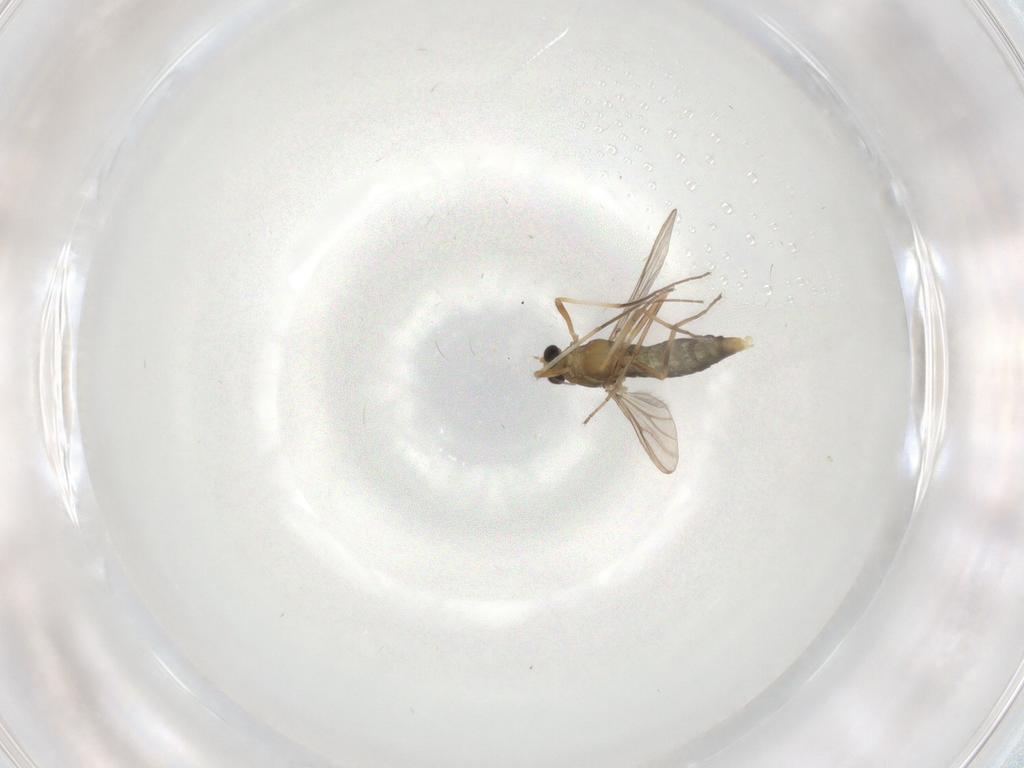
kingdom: Animalia
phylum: Arthropoda
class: Insecta
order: Diptera
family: Chironomidae
